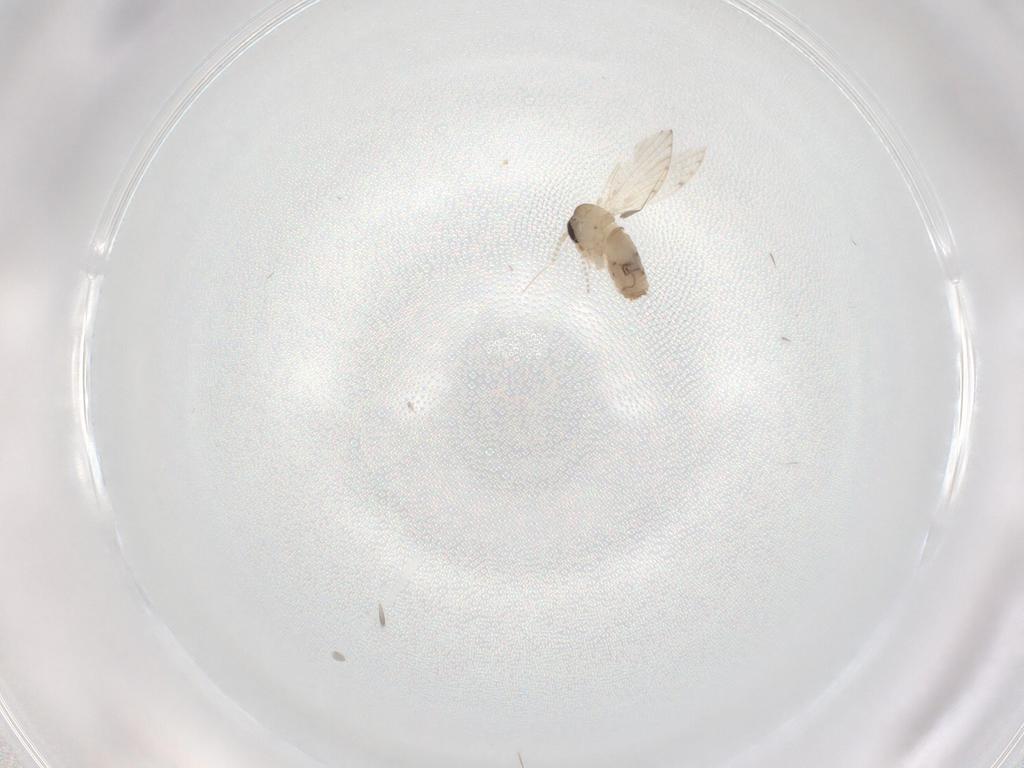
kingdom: Animalia
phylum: Arthropoda
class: Insecta
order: Diptera
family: Psychodidae
